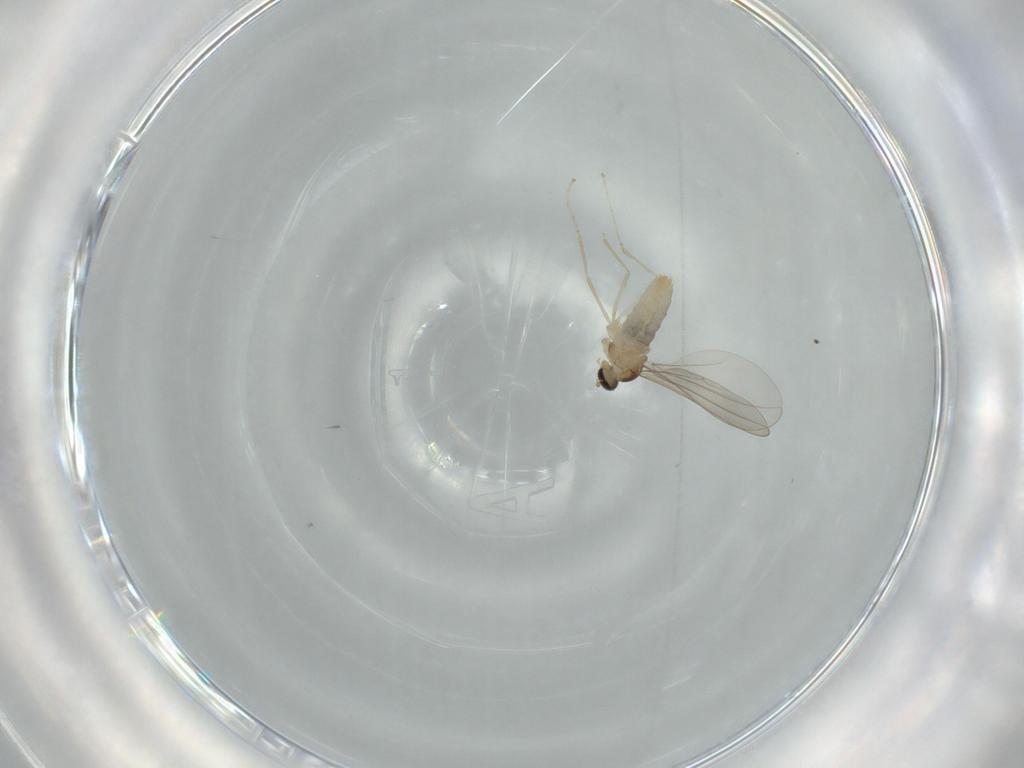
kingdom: Animalia
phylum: Arthropoda
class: Insecta
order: Diptera
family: Cecidomyiidae
